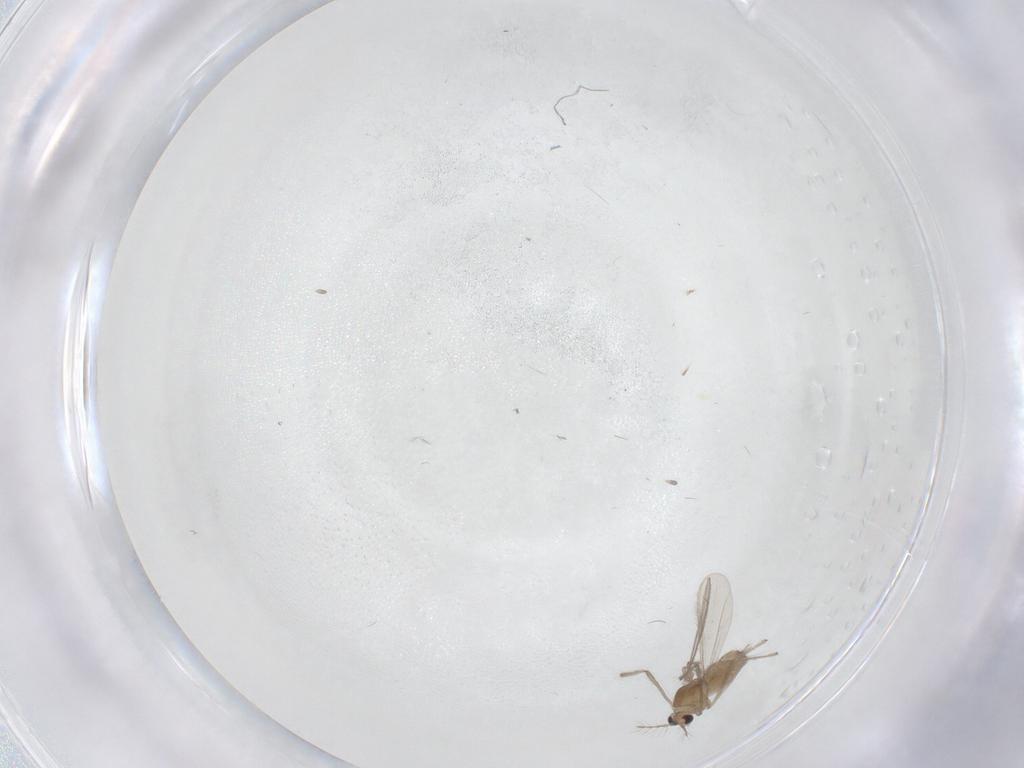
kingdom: Animalia
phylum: Arthropoda
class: Insecta
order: Diptera
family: Chironomidae
